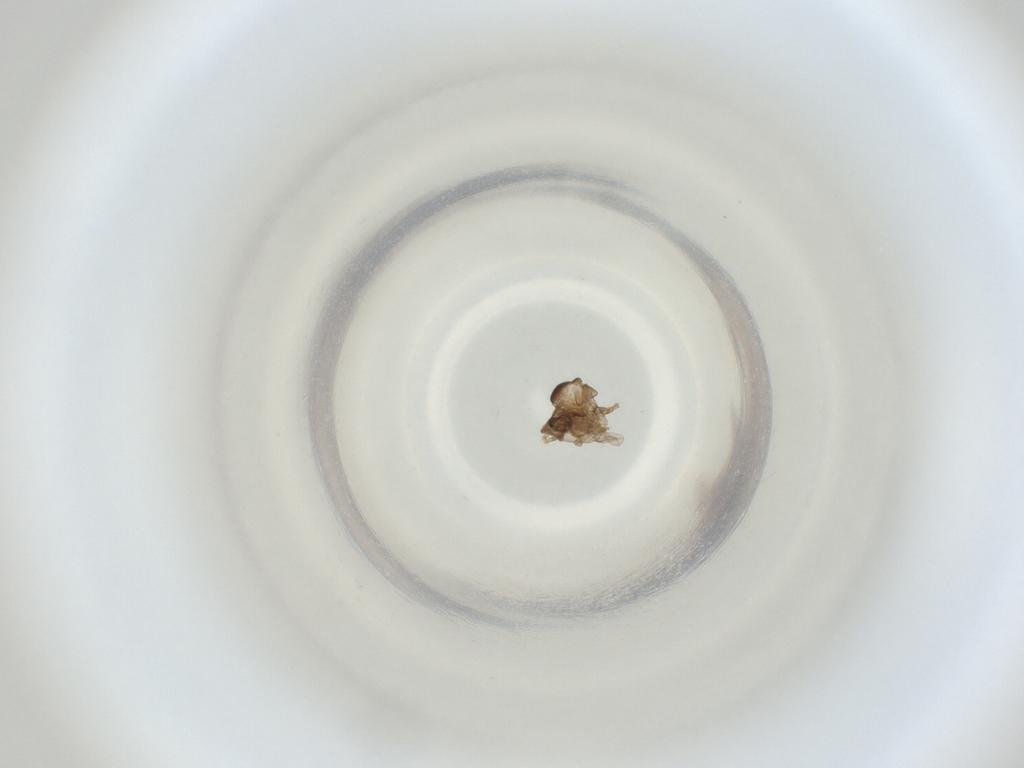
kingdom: Animalia
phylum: Arthropoda
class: Insecta
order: Diptera
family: Cecidomyiidae
